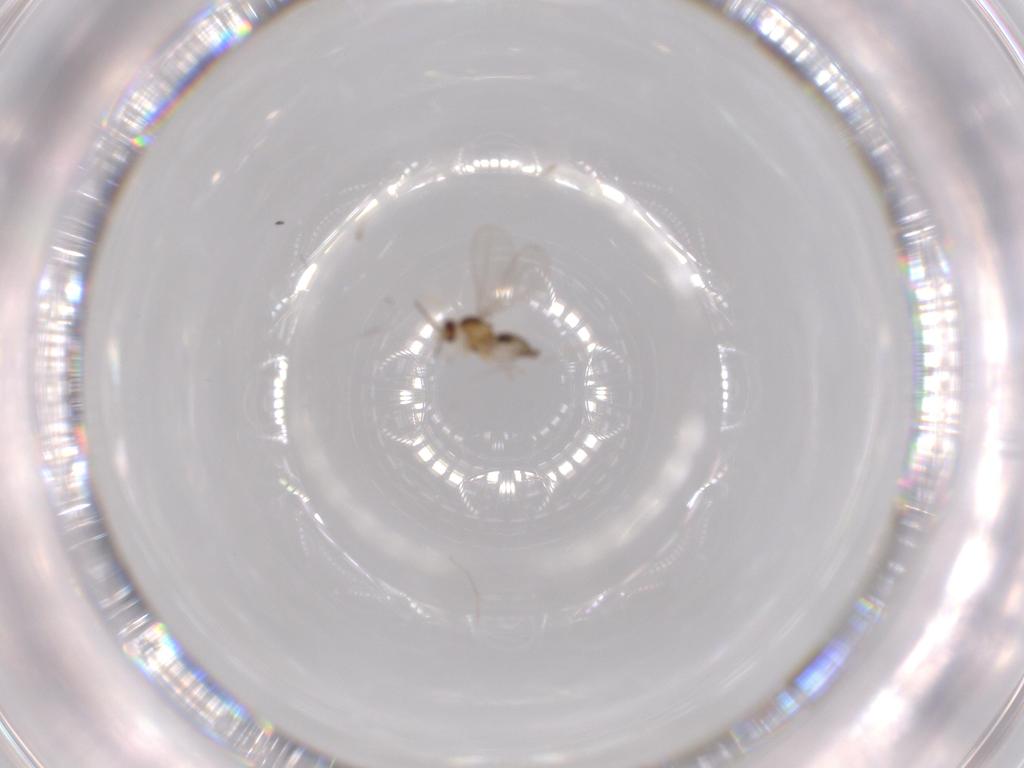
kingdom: Animalia
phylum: Arthropoda
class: Insecta
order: Diptera
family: Cecidomyiidae
